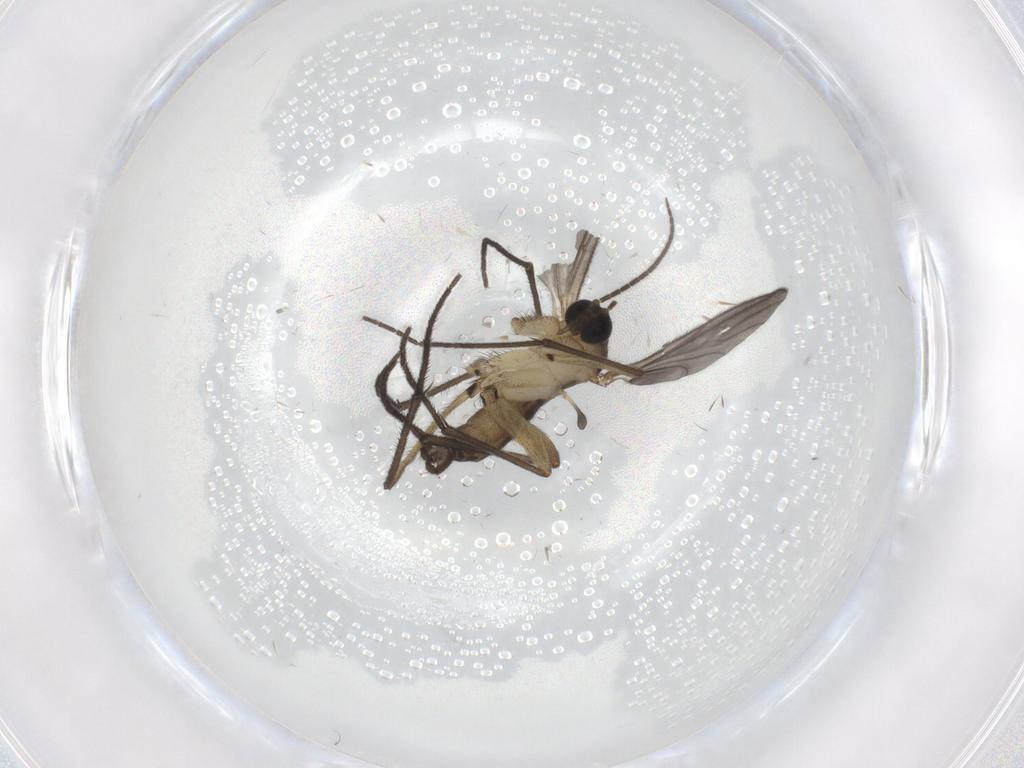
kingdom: Animalia
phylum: Arthropoda
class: Insecta
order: Diptera
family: Sciaridae
